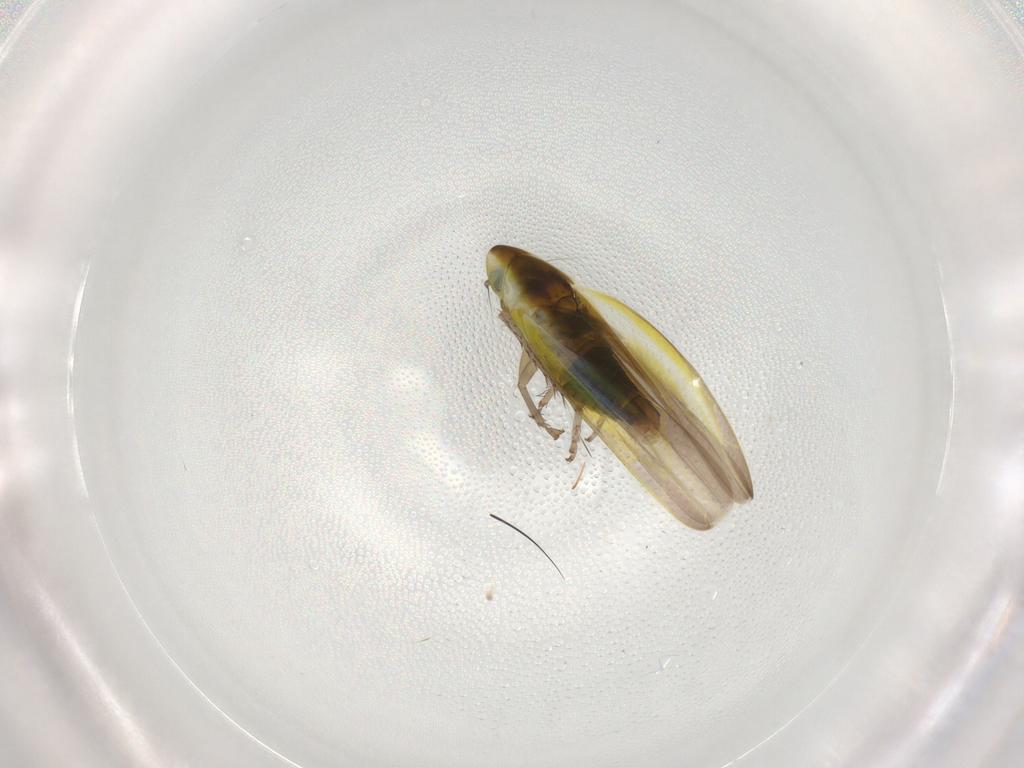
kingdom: Animalia
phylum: Arthropoda
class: Insecta
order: Hemiptera
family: Cicadellidae
